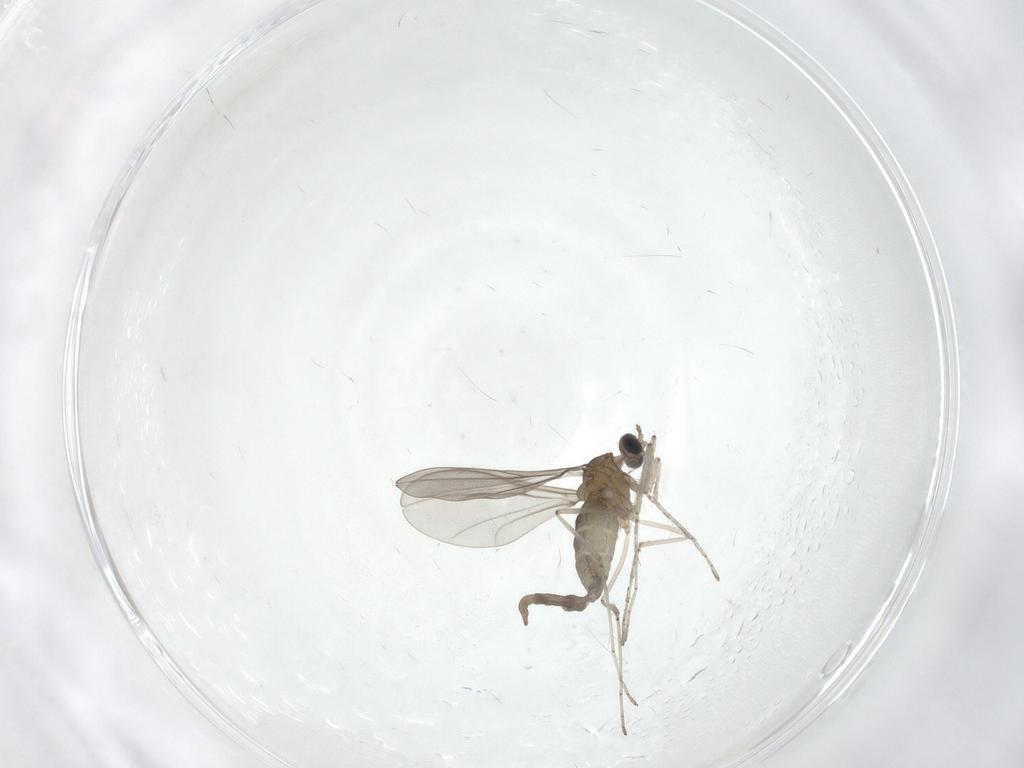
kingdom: Animalia
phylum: Arthropoda
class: Insecta
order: Diptera
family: Cecidomyiidae
